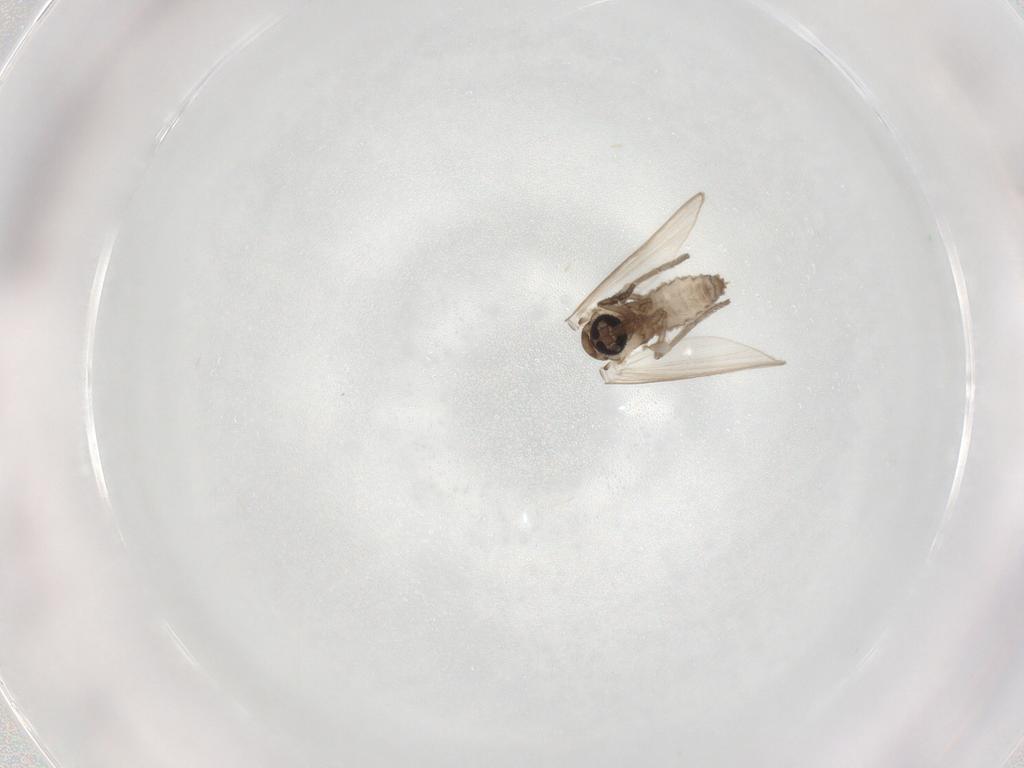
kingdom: Animalia
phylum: Arthropoda
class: Insecta
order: Diptera
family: Psychodidae
